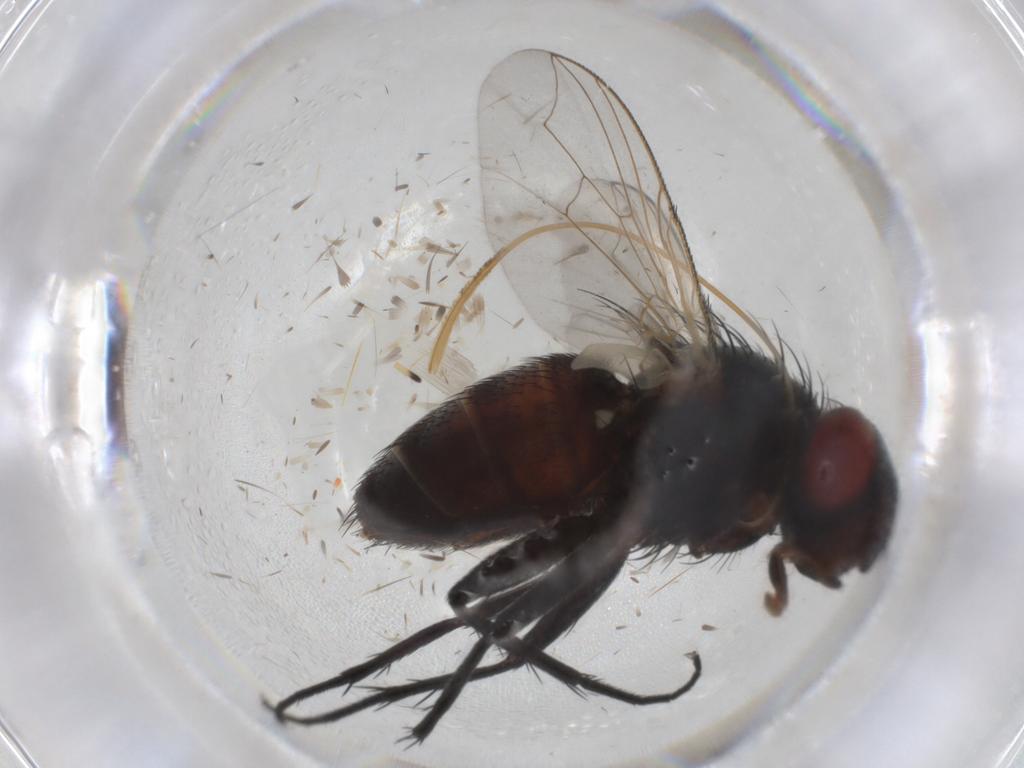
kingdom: Animalia
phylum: Arthropoda
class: Insecta
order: Diptera
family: Sarcophagidae
